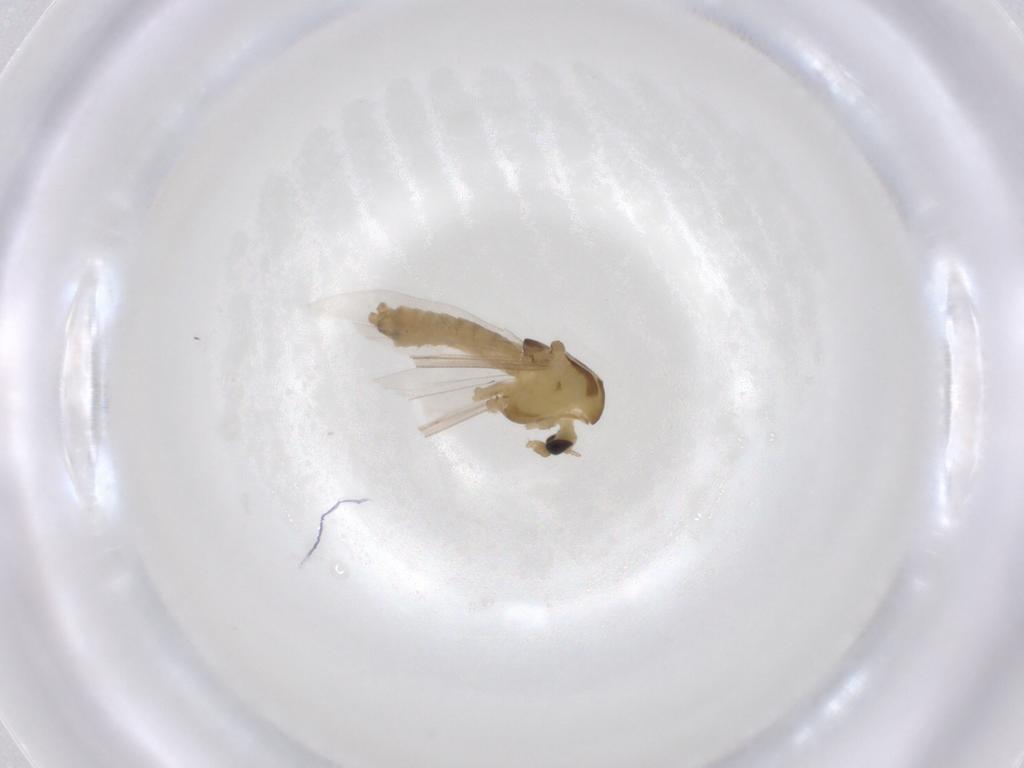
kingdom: Animalia
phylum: Arthropoda
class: Insecta
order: Diptera
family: Chironomidae
